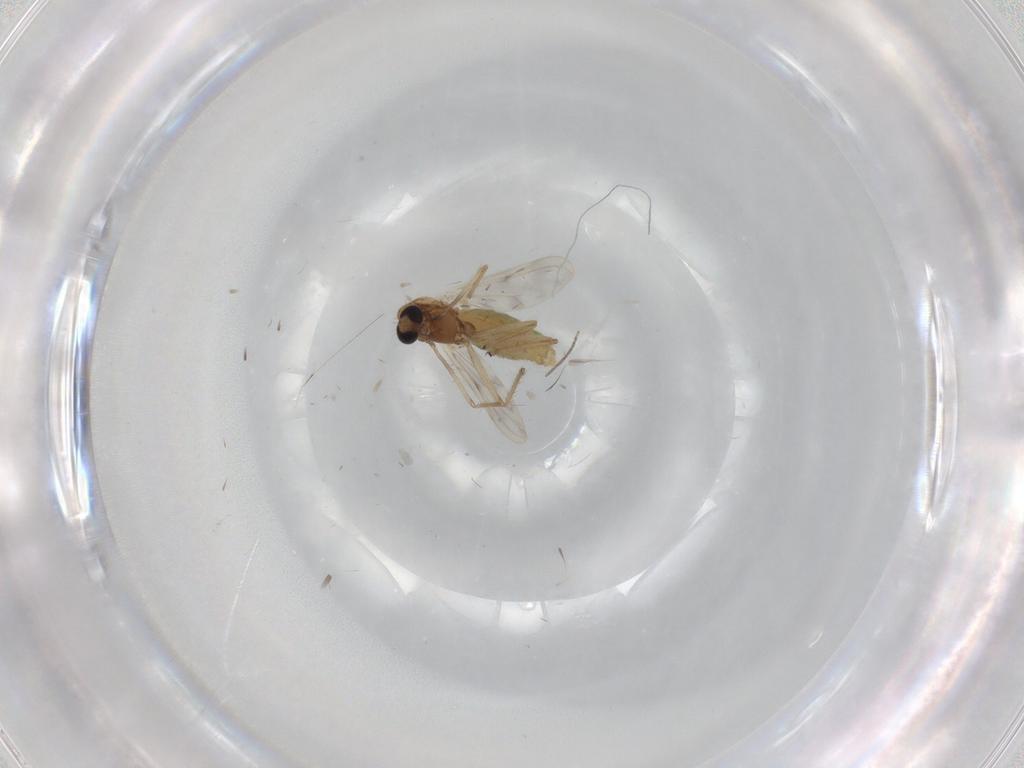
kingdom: Animalia
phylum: Arthropoda
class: Insecta
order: Diptera
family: Chironomidae
